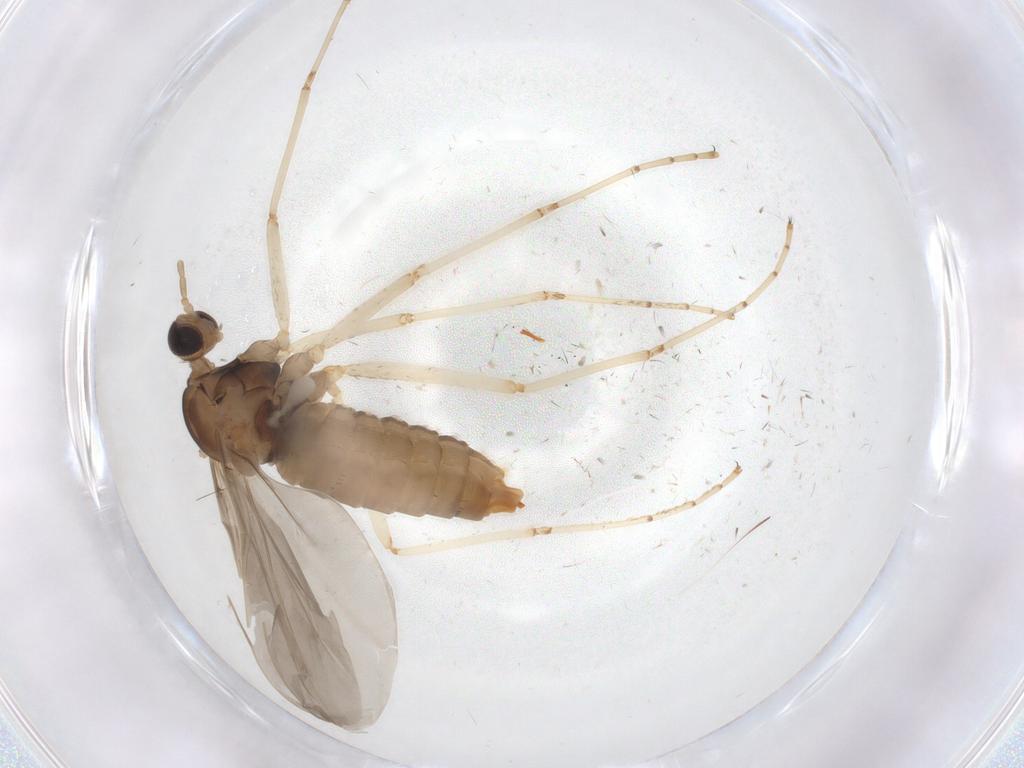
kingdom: Animalia
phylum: Arthropoda
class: Insecta
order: Diptera
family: Cecidomyiidae
